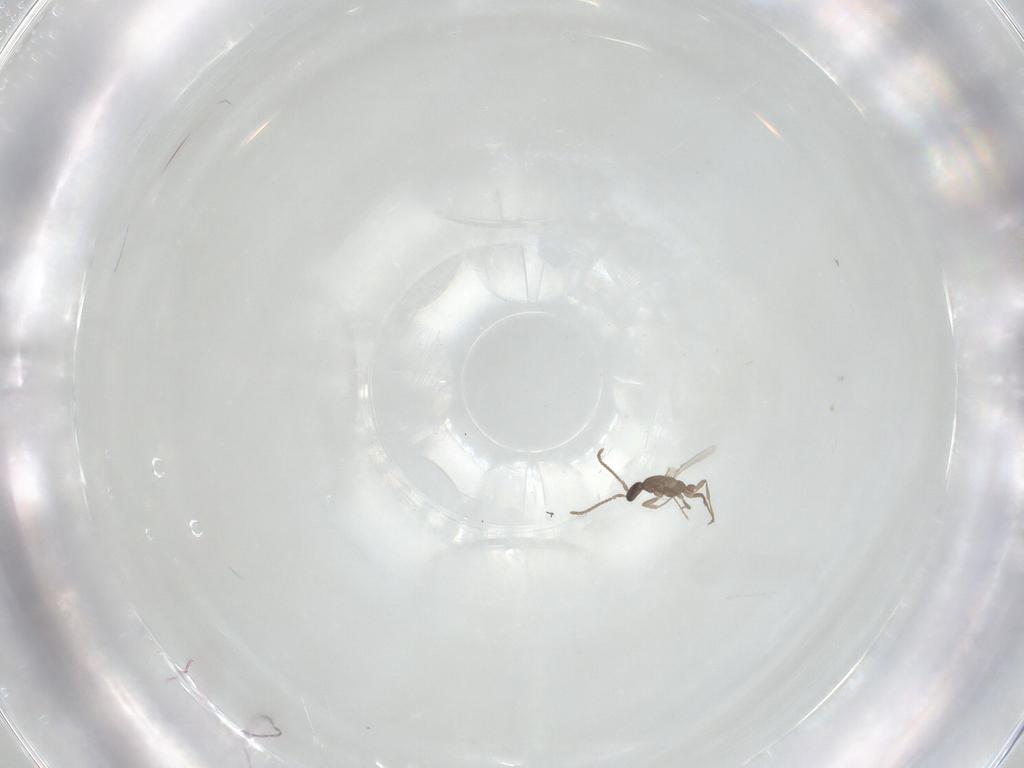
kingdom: Animalia
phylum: Arthropoda
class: Insecta
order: Hymenoptera
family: Formicidae
